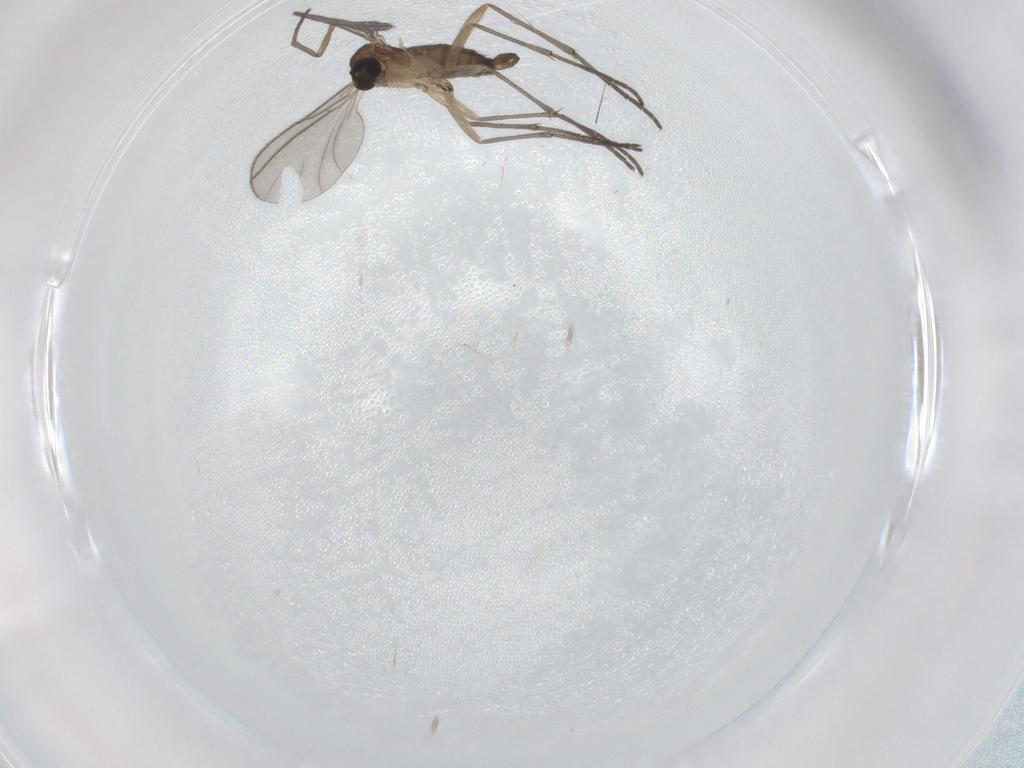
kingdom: Animalia
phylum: Arthropoda
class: Insecta
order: Diptera
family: Sciaridae
